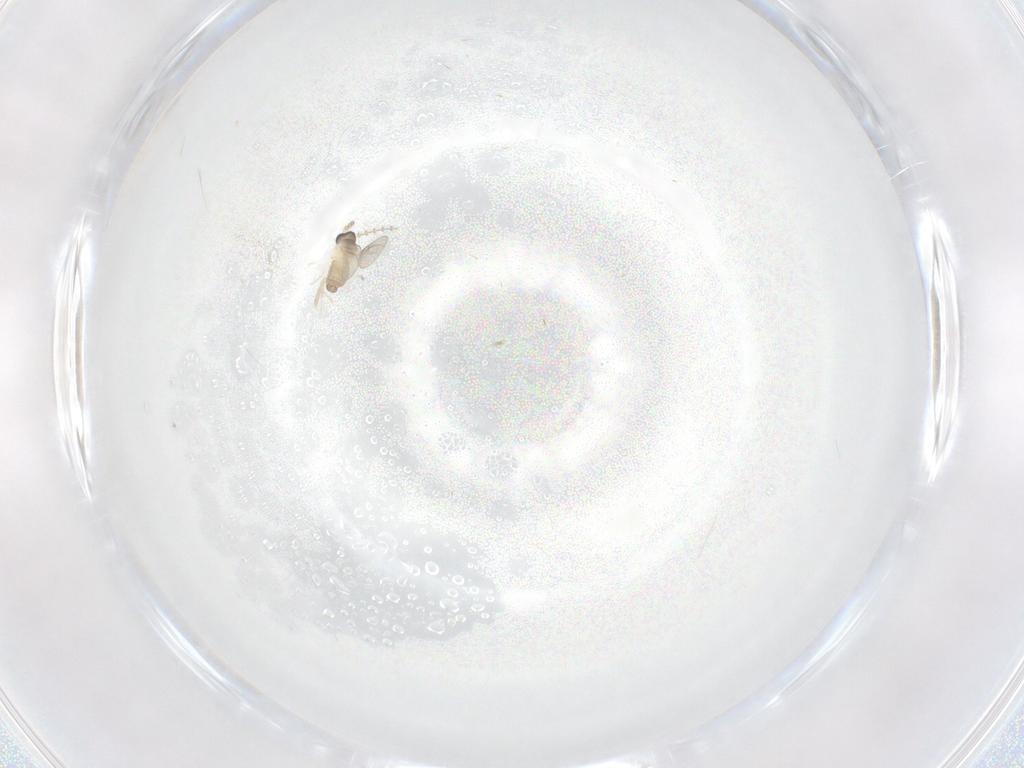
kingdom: Animalia
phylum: Arthropoda
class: Insecta
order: Diptera
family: Cecidomyiidae
